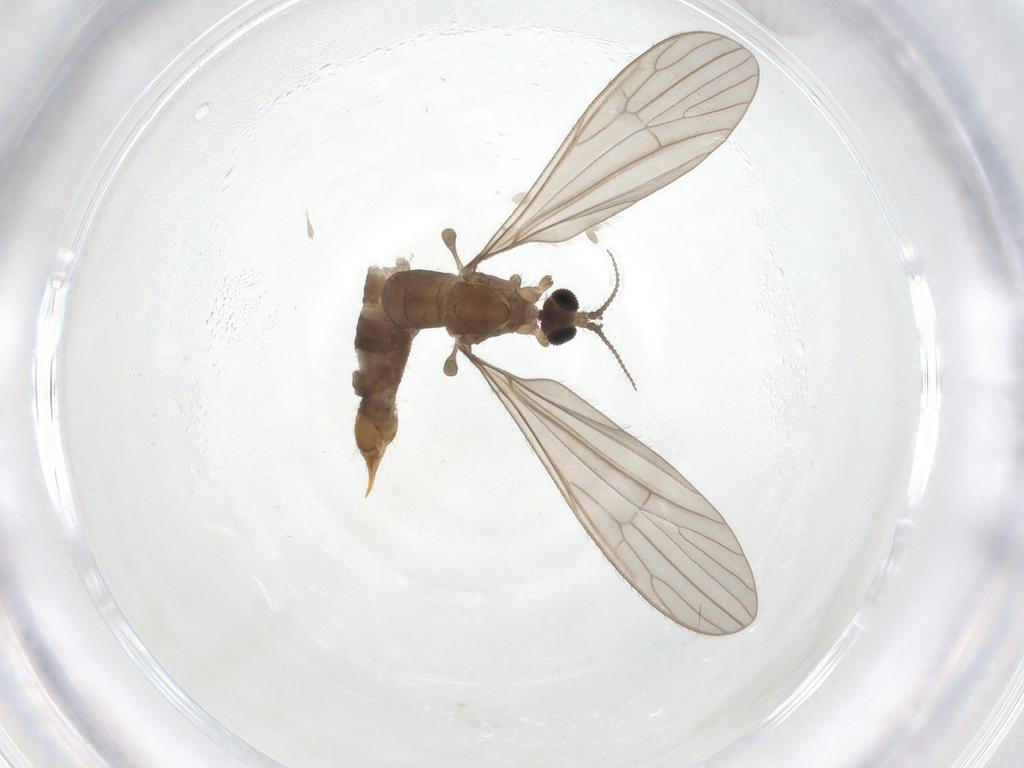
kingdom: Animalia
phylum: Arthropoda
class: Insecta
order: Diptera
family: Limoniidae
